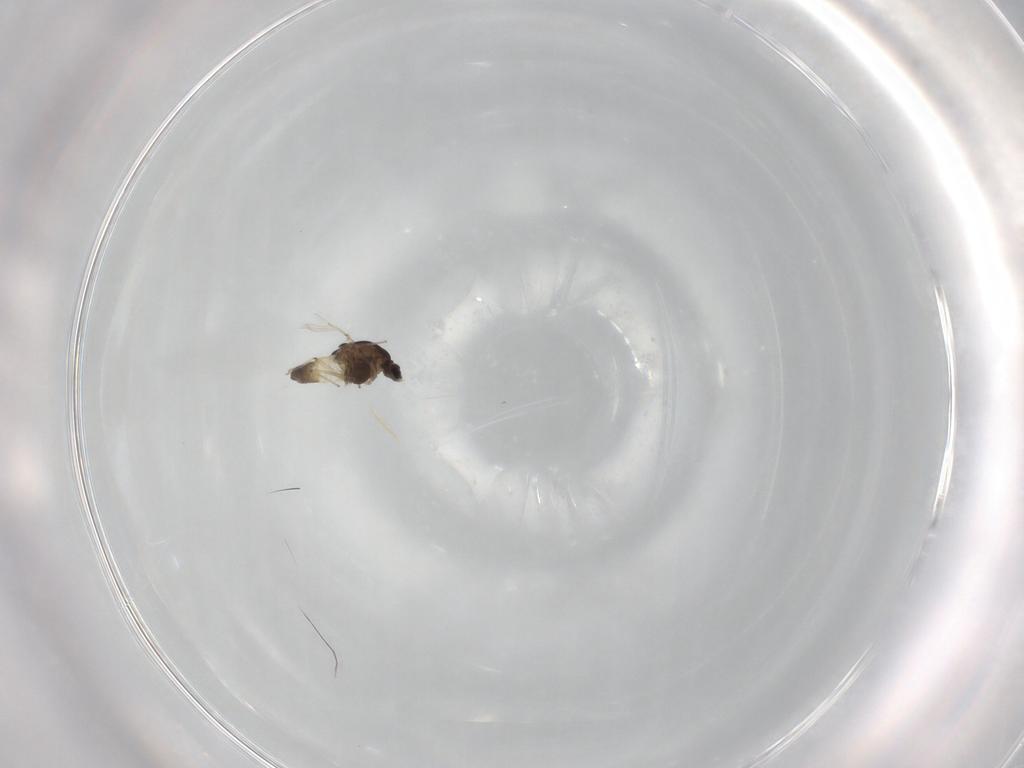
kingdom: Animalia
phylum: Arthropoda
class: Insecta
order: Diptera
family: Chironomidae
